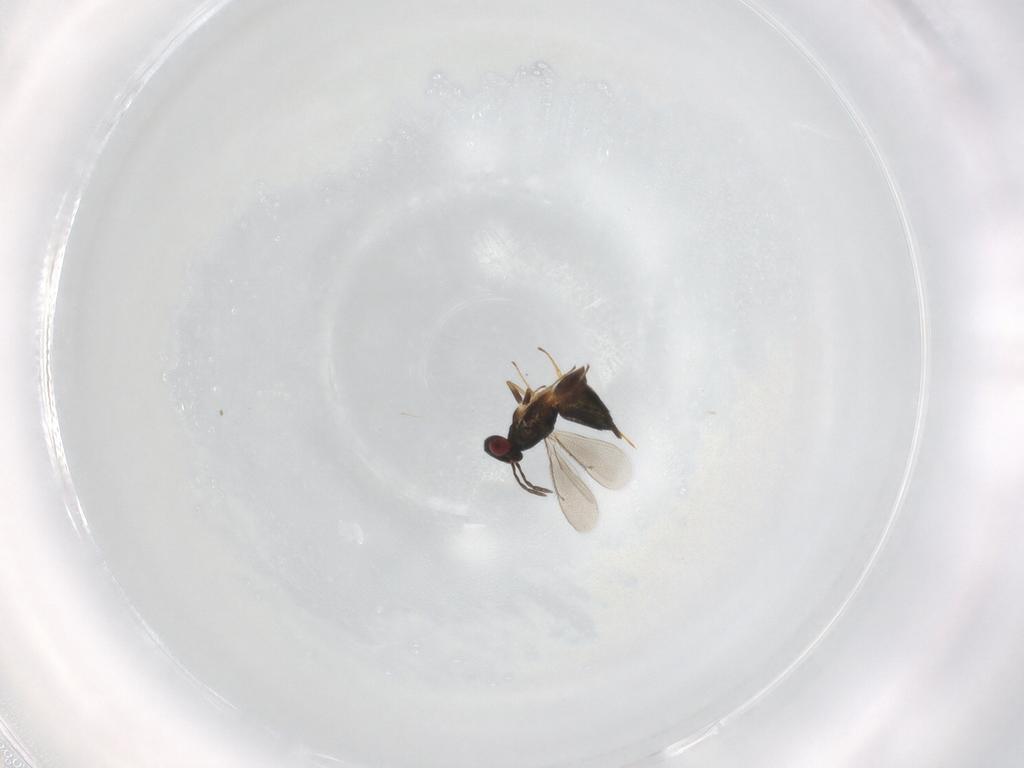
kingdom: Animalia
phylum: Arthropoda
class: Insecta
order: Hymenoptera
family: Eulophidae
